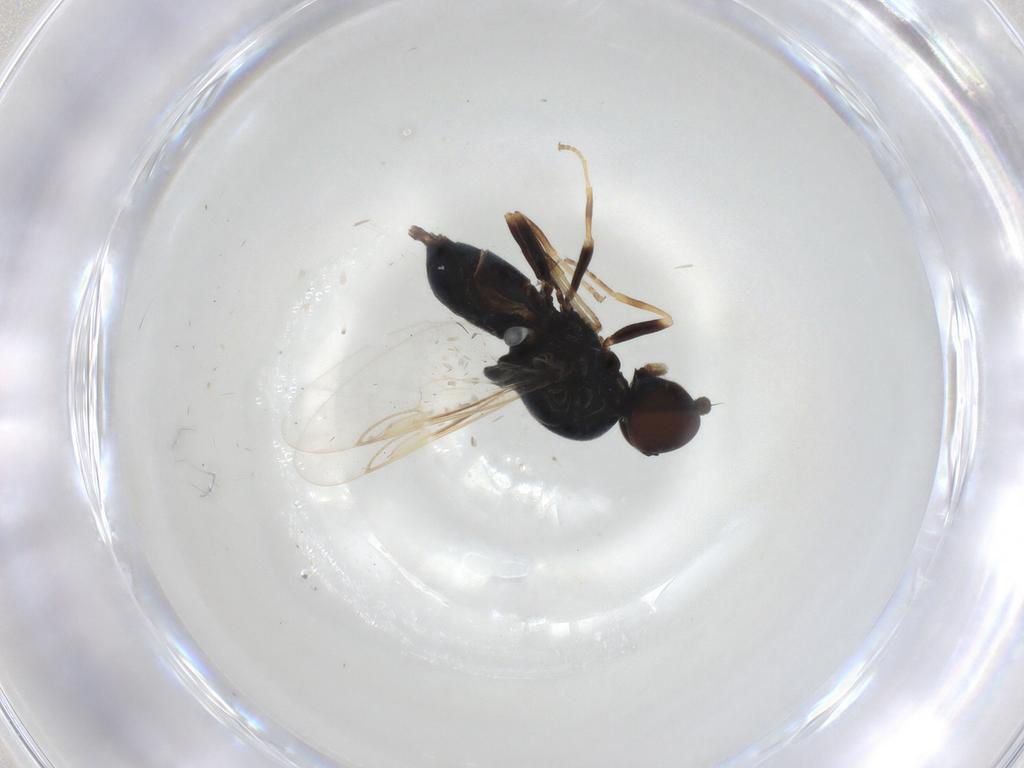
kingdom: Animalia
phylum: Arthropoda
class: Insecta
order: Diptera
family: Stratiomyidae
